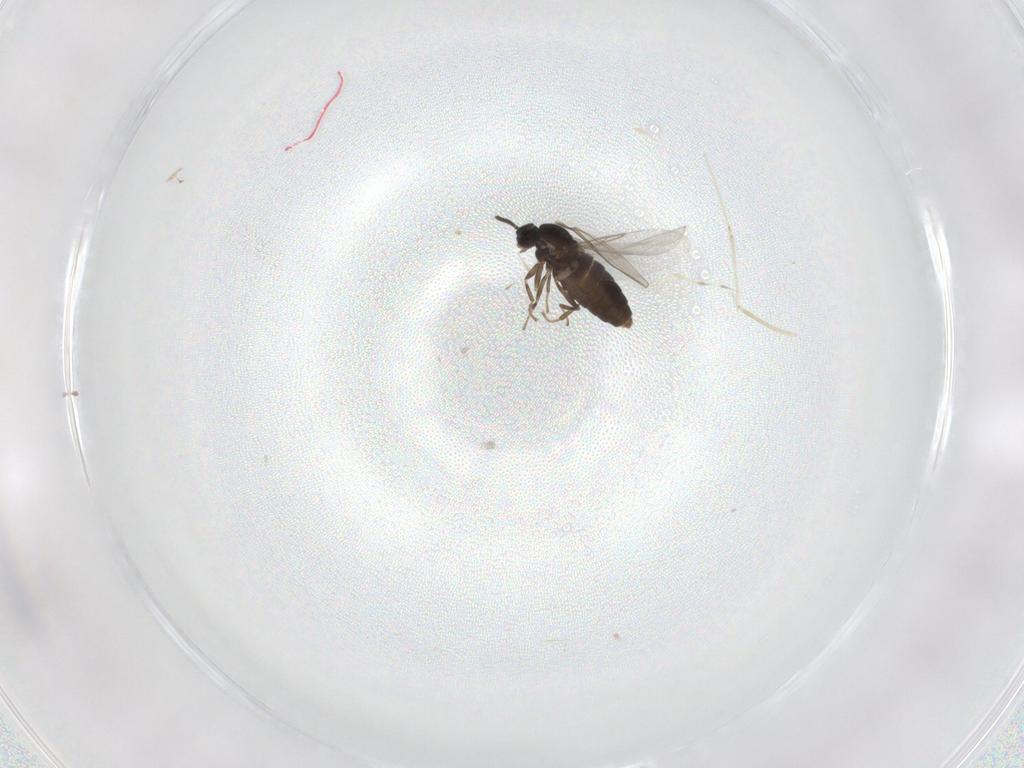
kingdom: Animalia
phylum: Arthropoda
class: Insecta
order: Diptera
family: Scatopsidae
